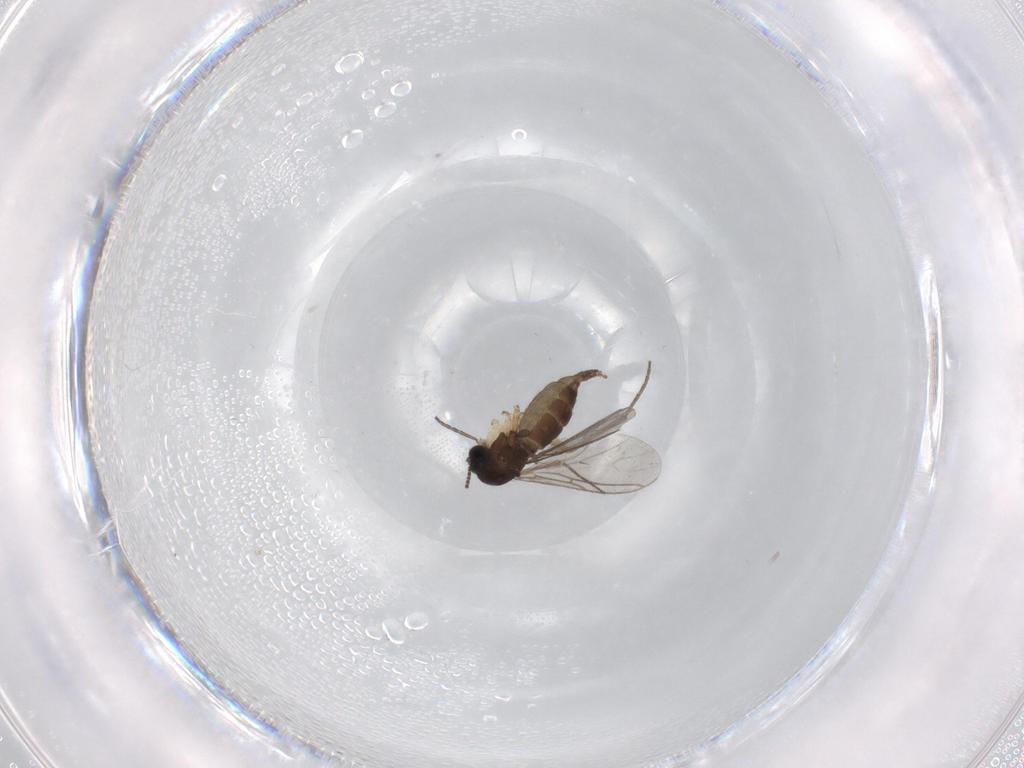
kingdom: Animalia
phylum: Arthropoda
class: Insecta
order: Diptera
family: Sciaridae
